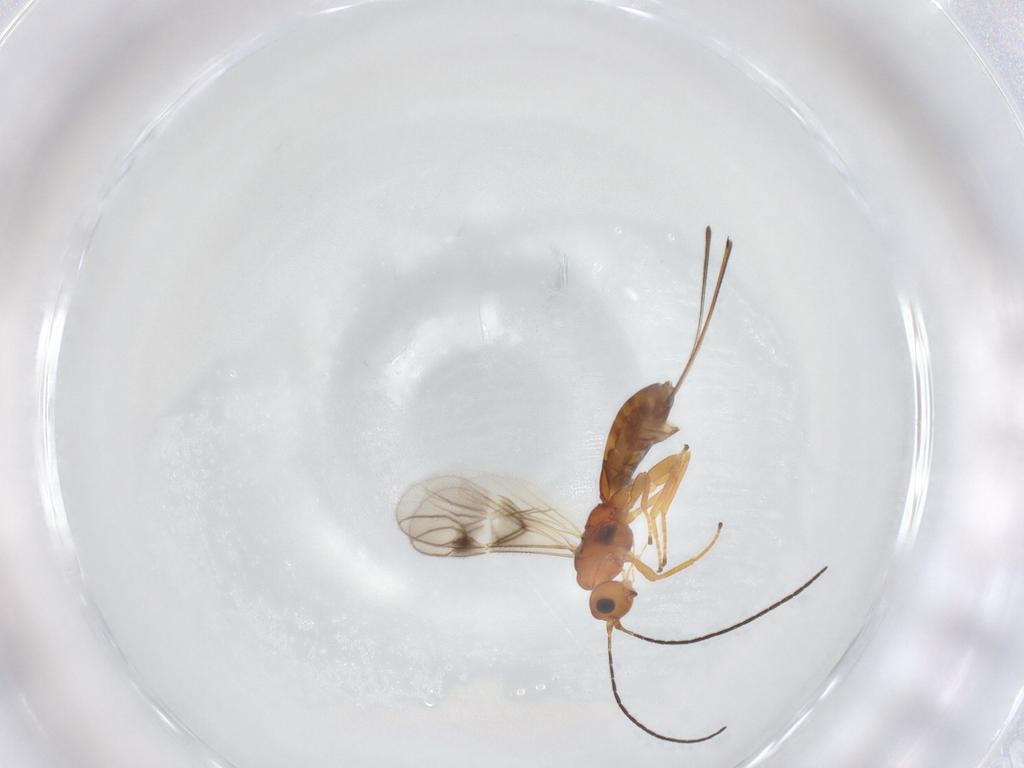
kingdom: Animalia
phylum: Arthropoda
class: Insecta
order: Hymenoptera
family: Braconidae
